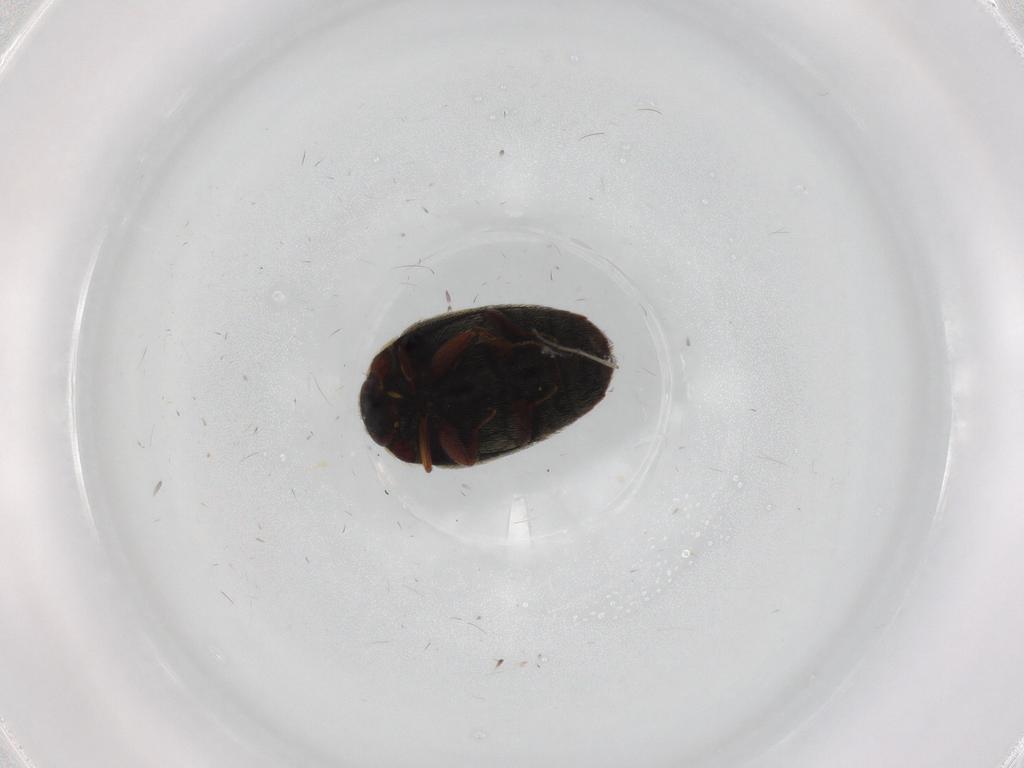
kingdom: Animalia
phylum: Arthropoda
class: Insecta
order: Coleoptera
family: Dermestidae
